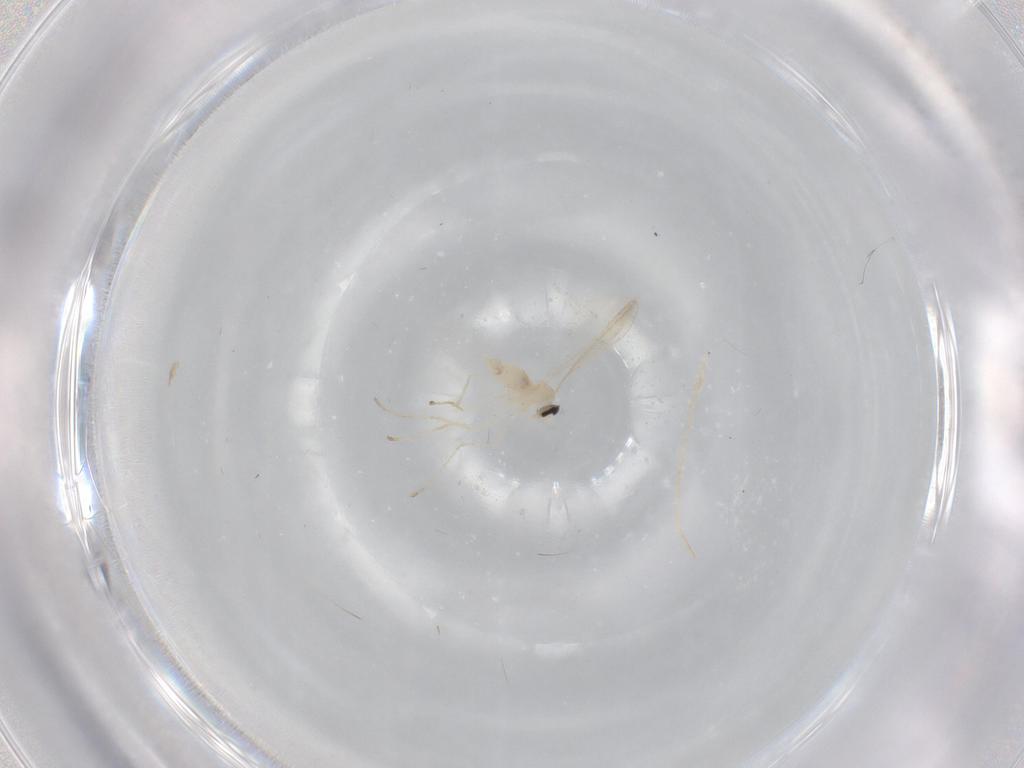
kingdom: Animalia
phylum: Arthropoda
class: Insecta
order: Diptera
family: Cecidomyiidae
